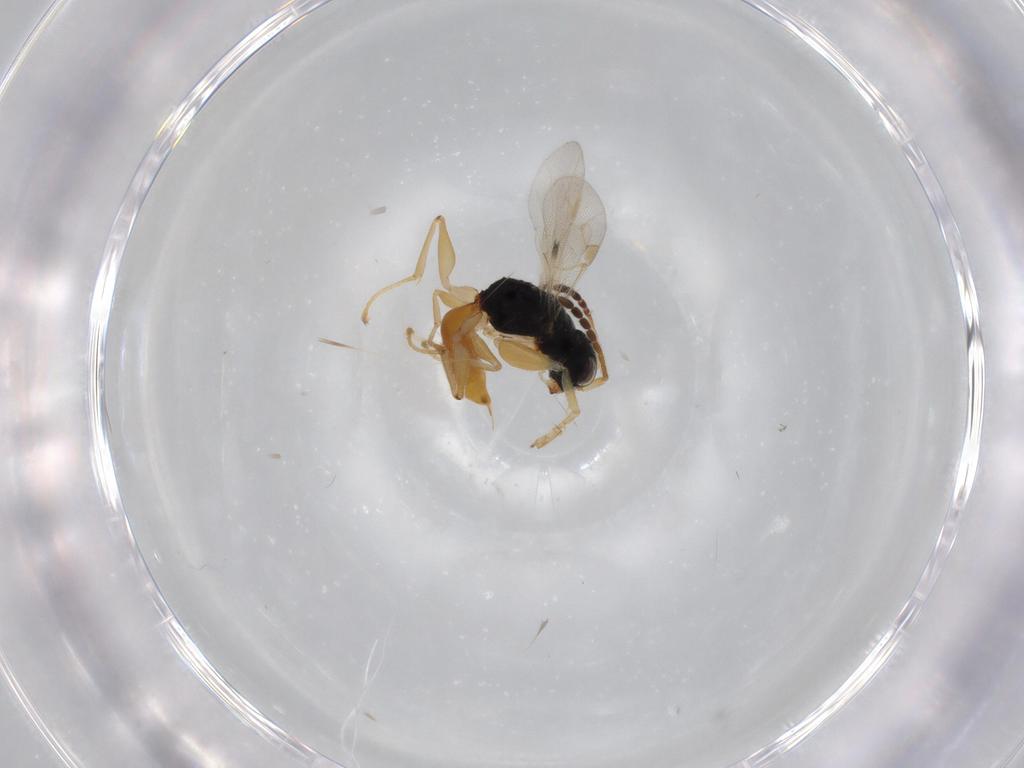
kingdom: Animalia
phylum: Arthropoda
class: Insecta
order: Hymenoptera
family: Dryinidae
